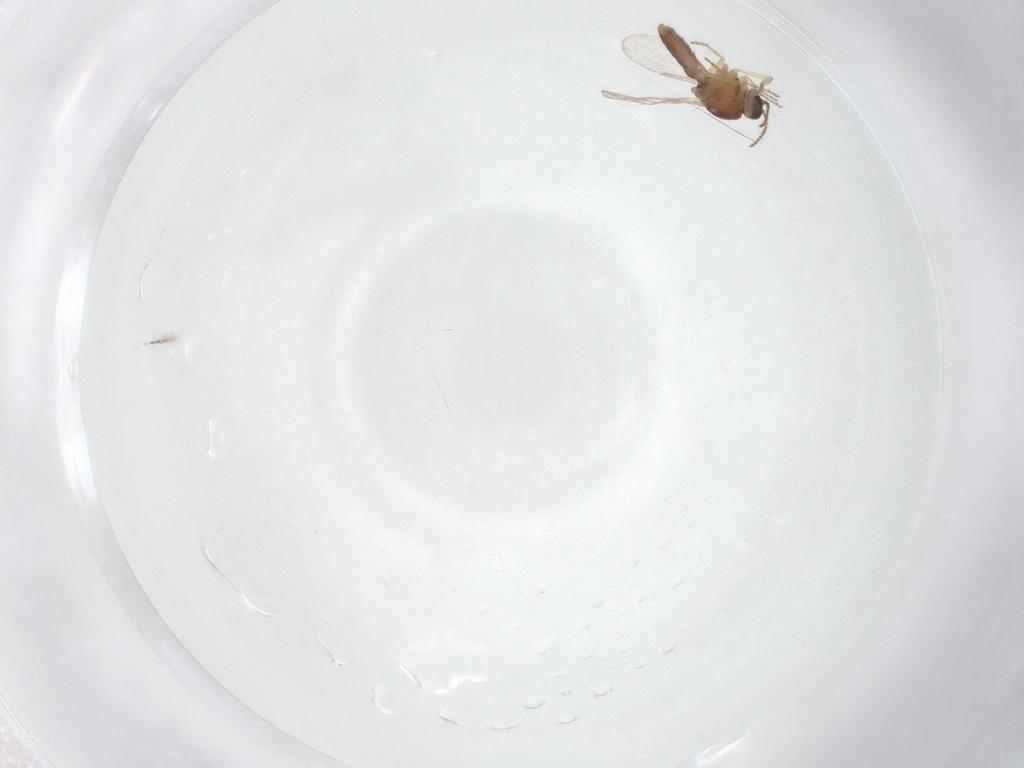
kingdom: Animalia
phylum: Arthropoda
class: Insecta
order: Diptera
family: Ceratopogonidae
